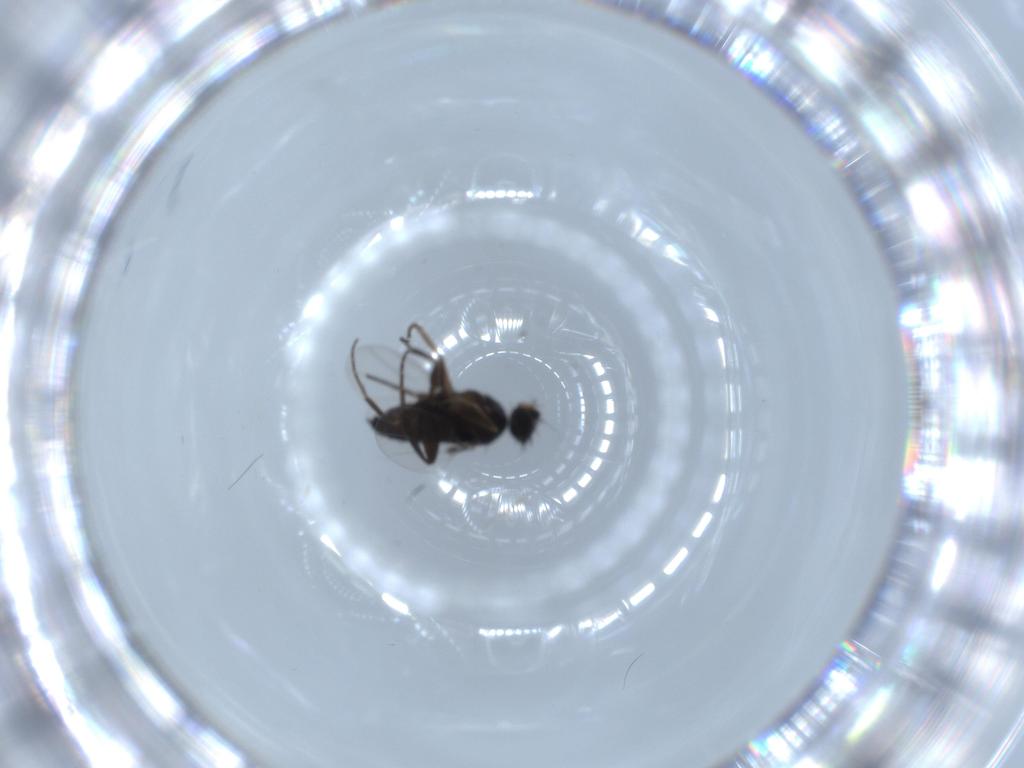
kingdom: Animalia
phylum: Arthropoda
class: Insecta
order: Diptera
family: Phoridae
